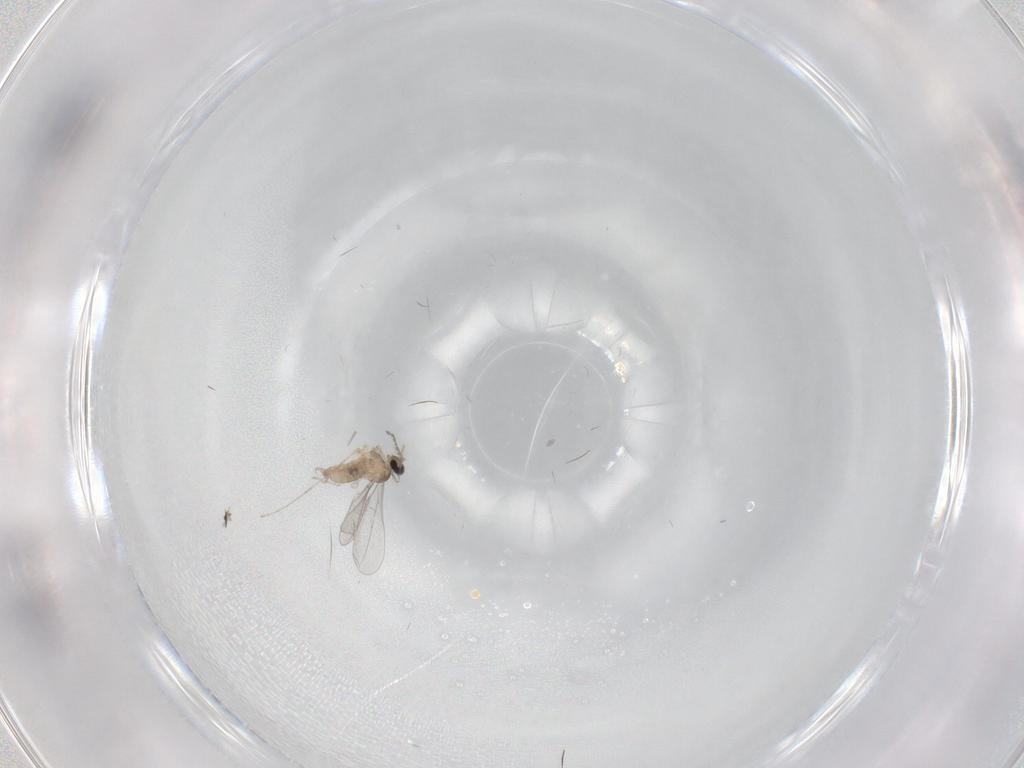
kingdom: Animalia
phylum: Arthropoda
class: Insecta
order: Diptera
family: Cecidomyiidae
